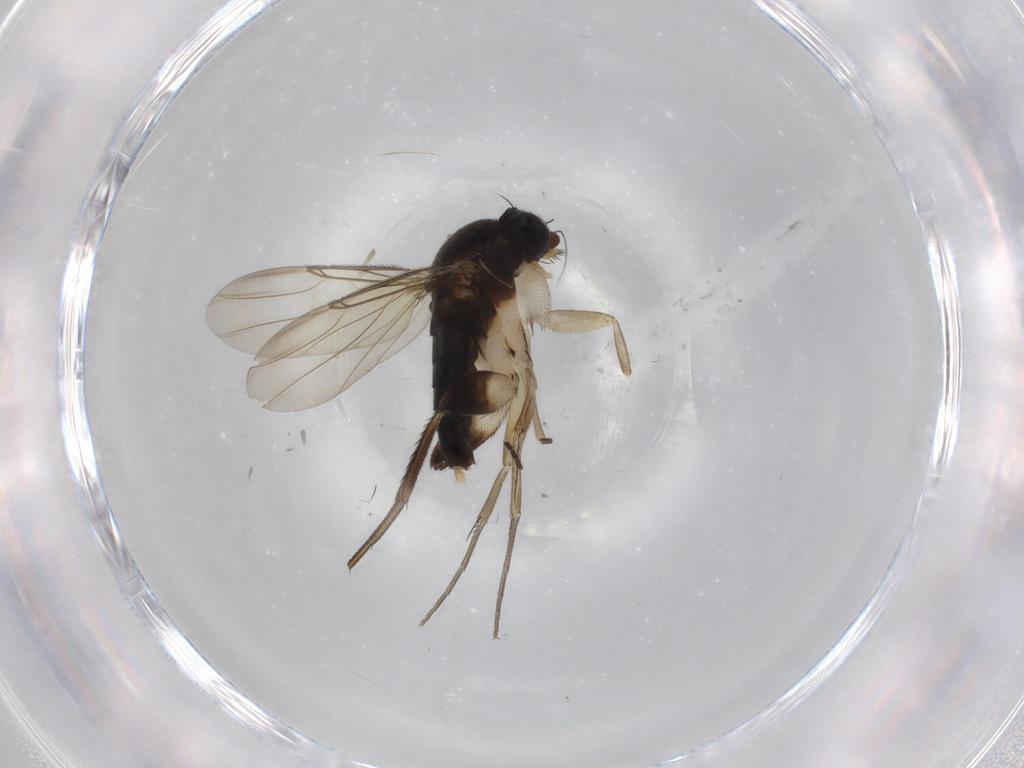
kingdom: Animalia
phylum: Arthropoda
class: Insecta
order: Diptera
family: Phoridae
